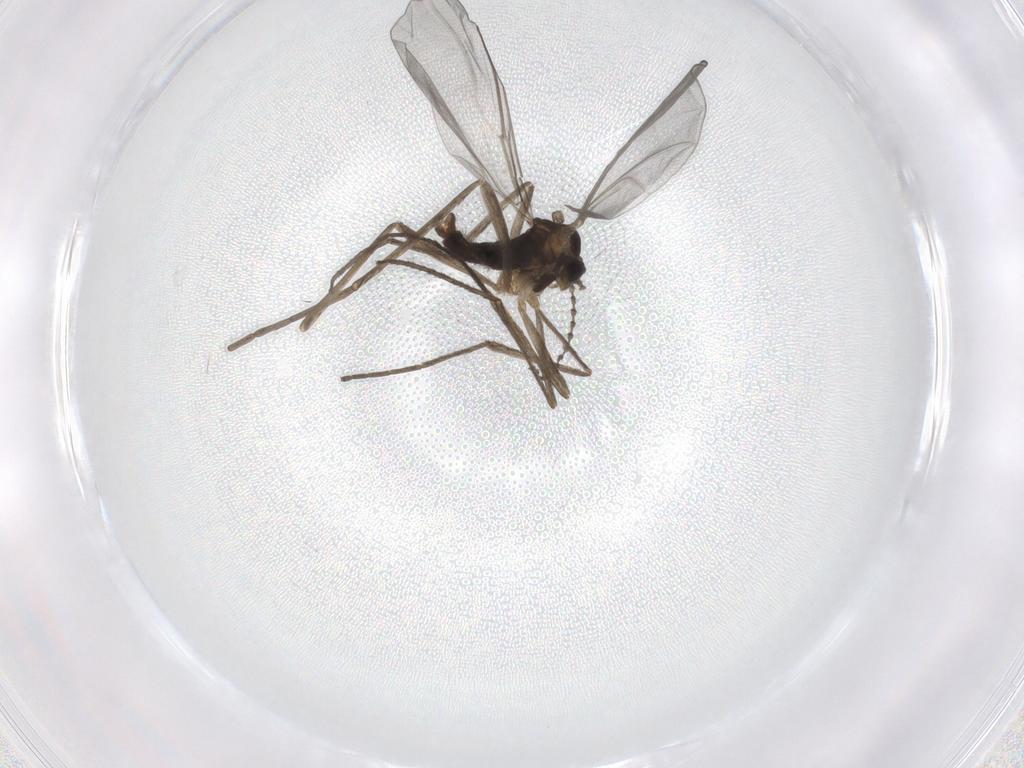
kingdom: Animalia
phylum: Arthropoda
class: Insecta
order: Diptera
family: Cecidomyiidae
